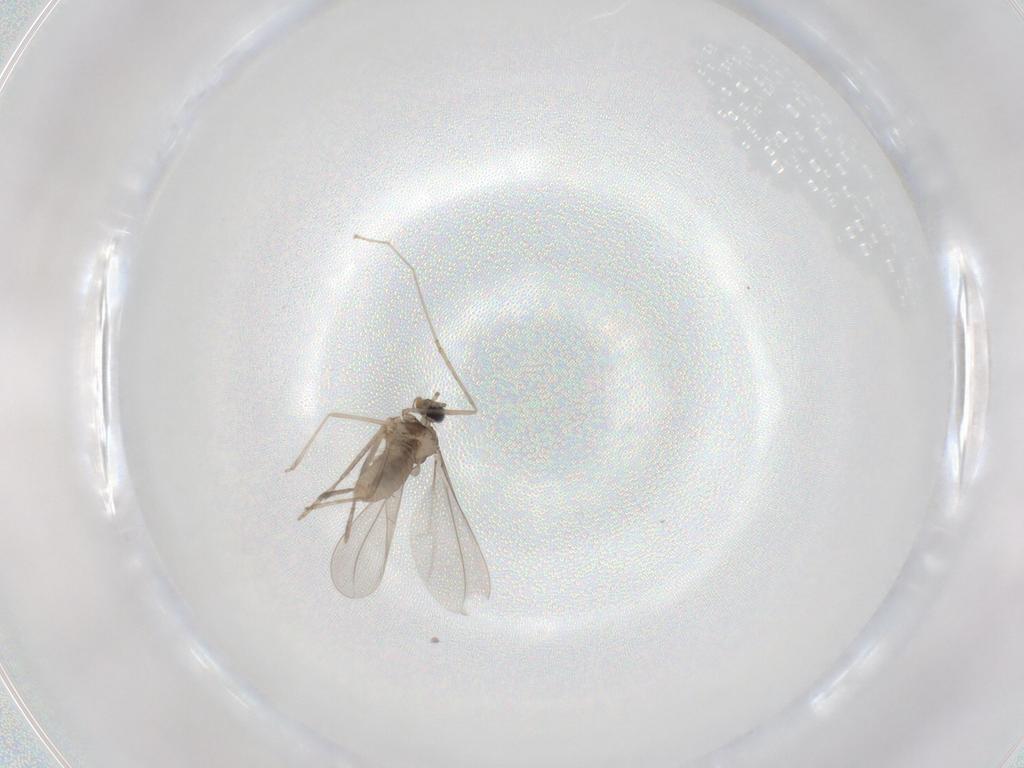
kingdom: Animalia
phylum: Arthropoda
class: Insecta
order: Diptera
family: Cecidomyiidae
